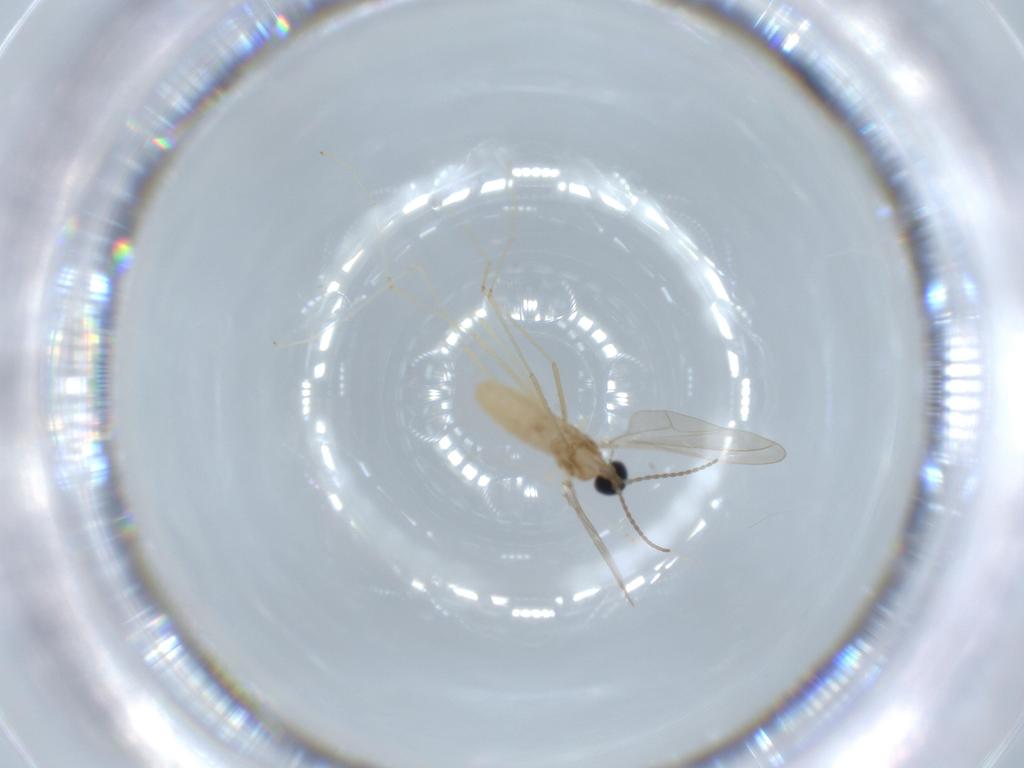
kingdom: Animalia
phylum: Arthropoda
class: Insecta
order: Diptera
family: Cecidomyiidae
